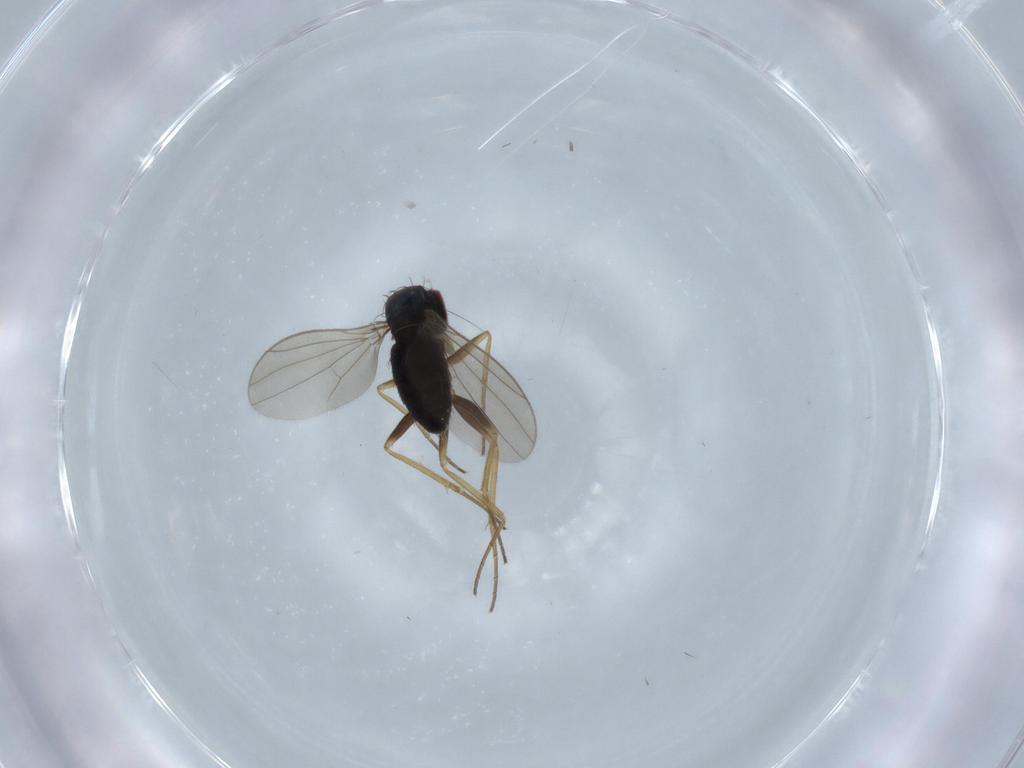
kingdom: Animalia
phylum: Arthropoda
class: Insecta
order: Diptera
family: Dolichopodidae
